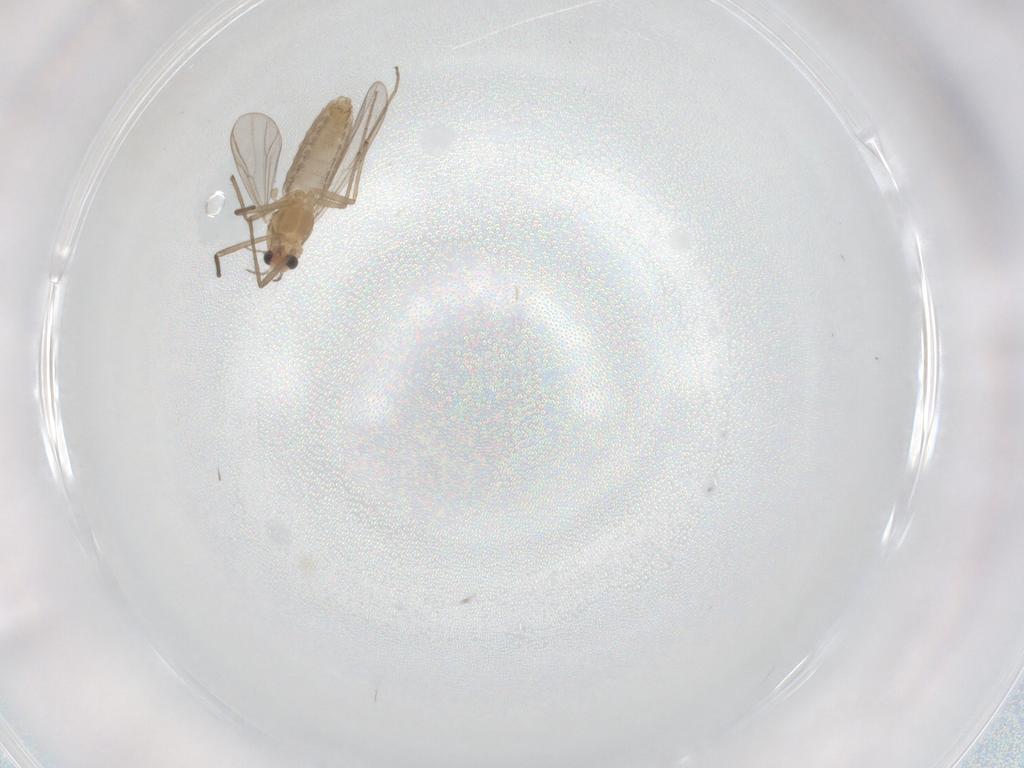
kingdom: Animalia
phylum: Arthropoda
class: Insecta
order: Diptera
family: Chironomidae
